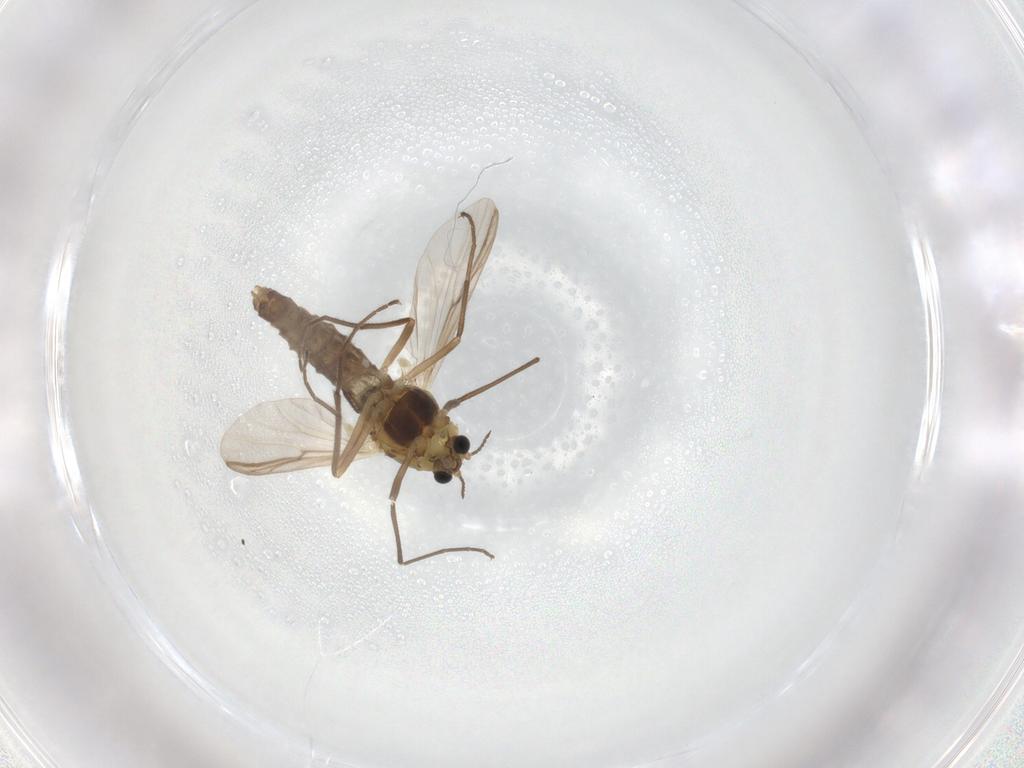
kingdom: Animalia
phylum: Arthropoda
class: Insecta
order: Diptera
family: Chironomidae
